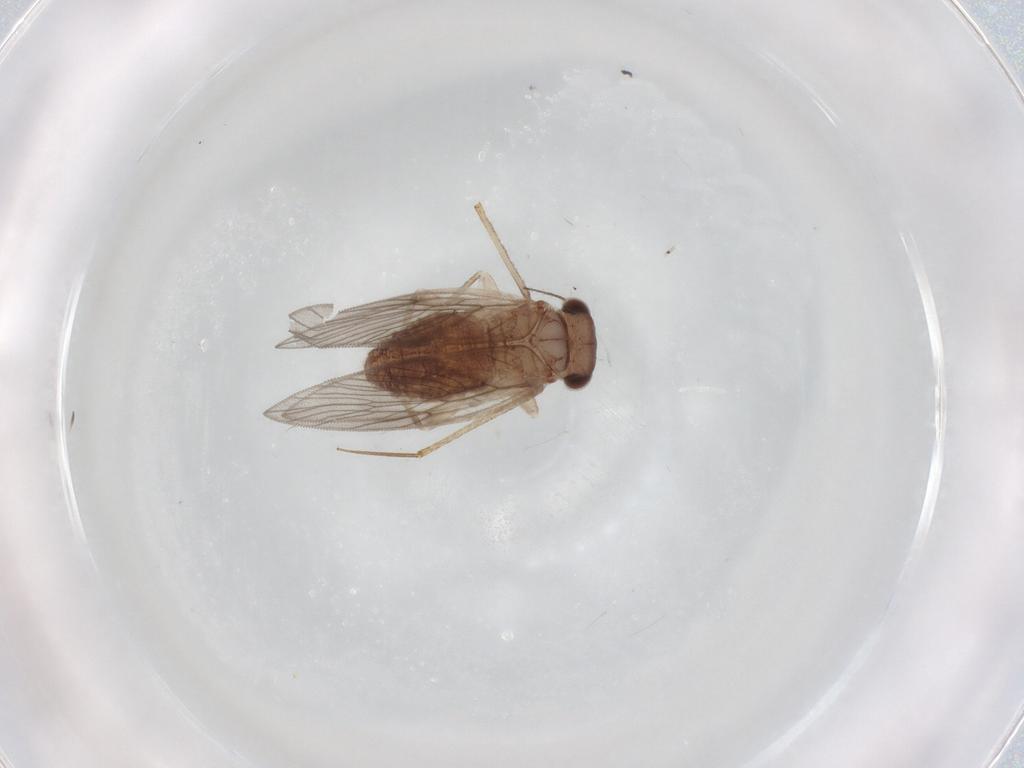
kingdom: Animalia
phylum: Arthropoda
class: Insecta
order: Psocodea
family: Lepidopsocidae
